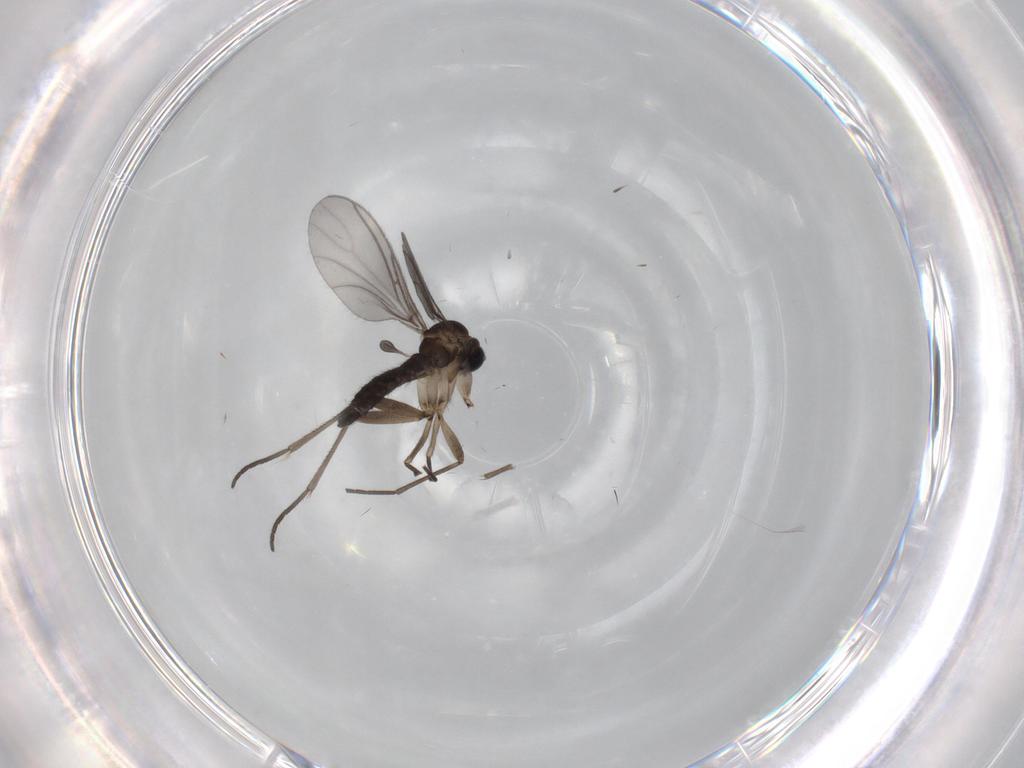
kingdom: Animalia
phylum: Arthropoda
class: Insecta
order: Diptera
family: Sciaridae
